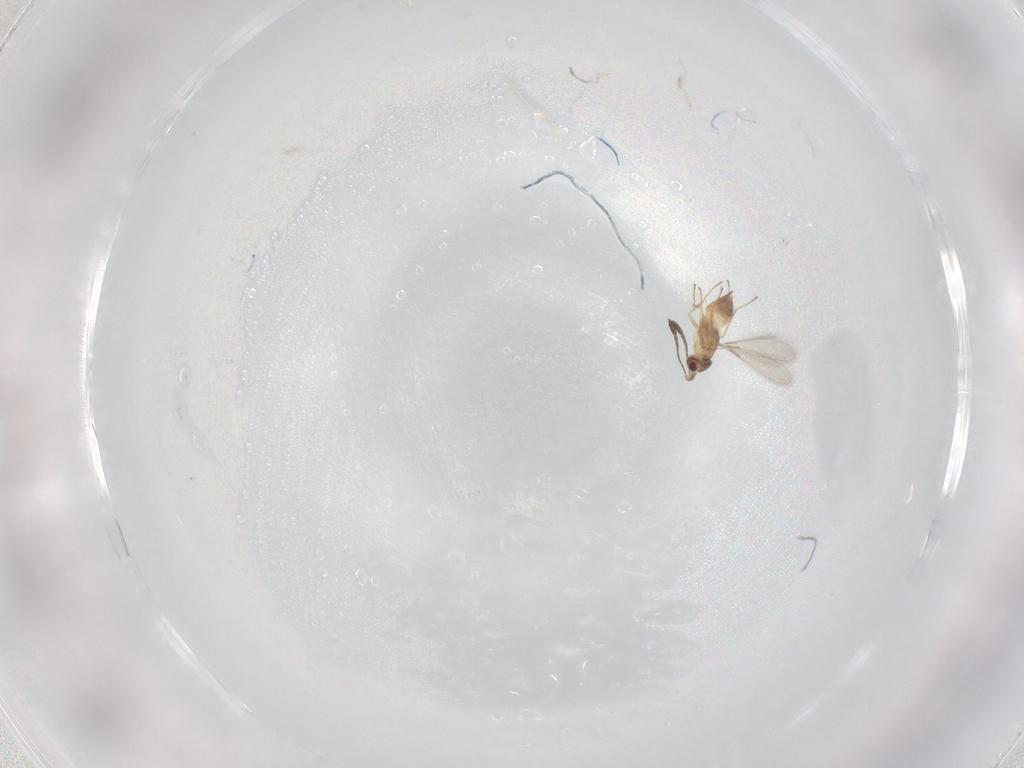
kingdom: Animalia
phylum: Arthropoda
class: Insecta
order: Hymenoptera
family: Mymaridae
